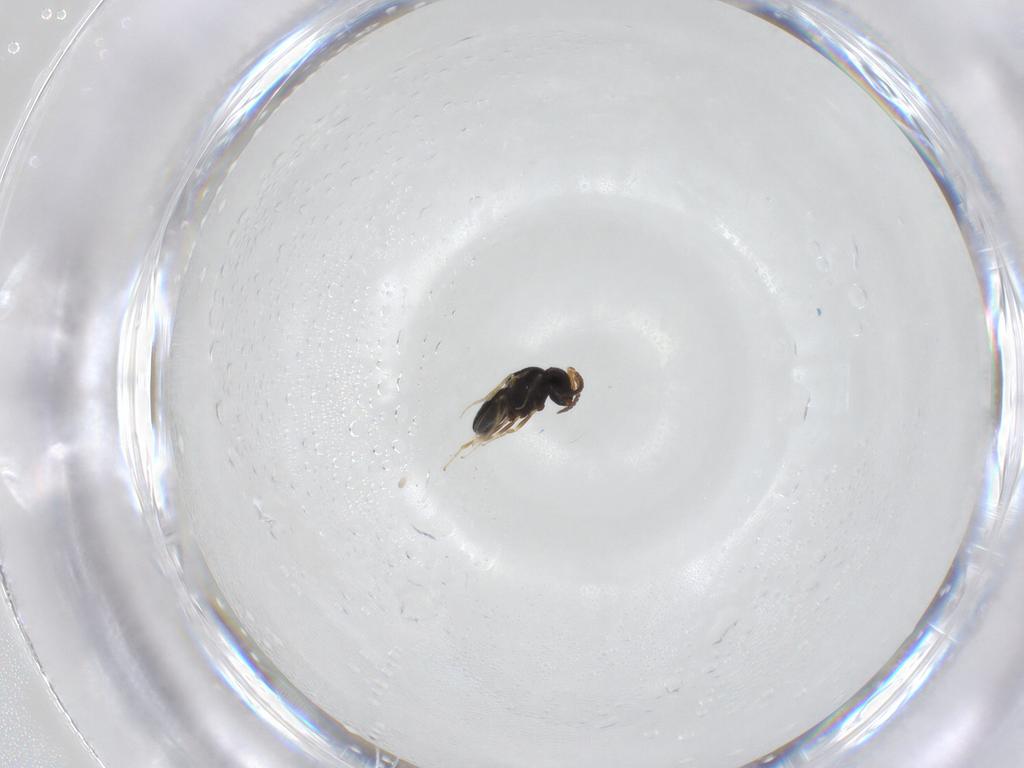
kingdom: Animalia
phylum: Arthropoda
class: Insecta
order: Hymenoptera
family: Scelionidae
